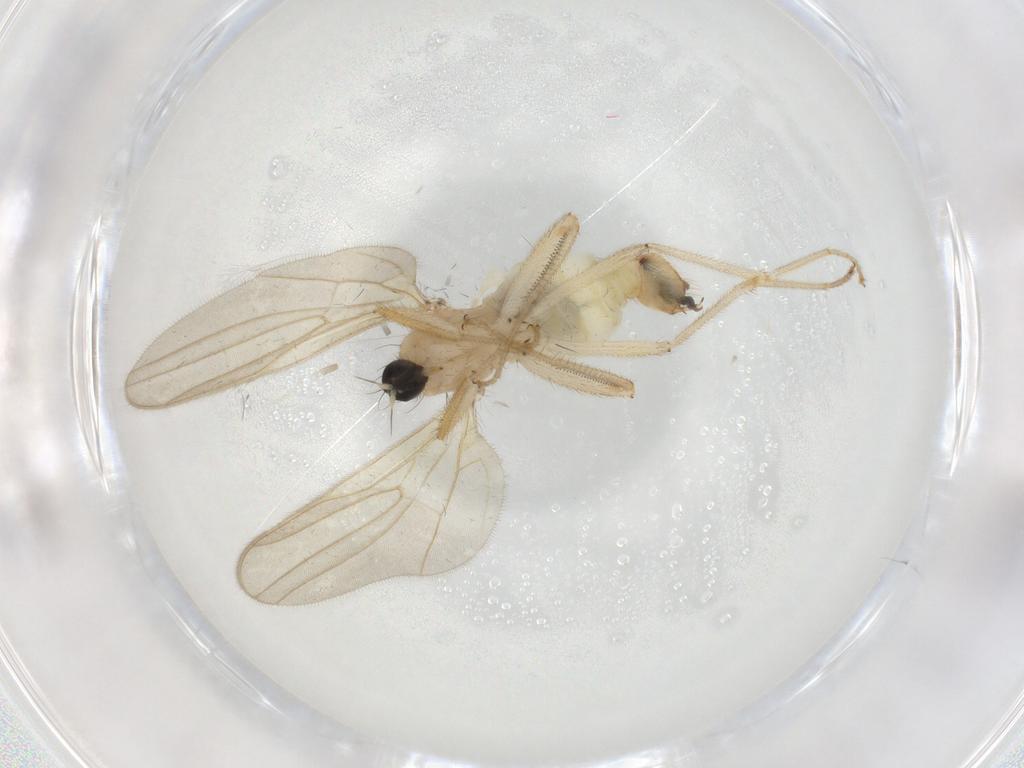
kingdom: Animalia
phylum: Arthropoda
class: Insecta
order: Diptera
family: Hybotidae
